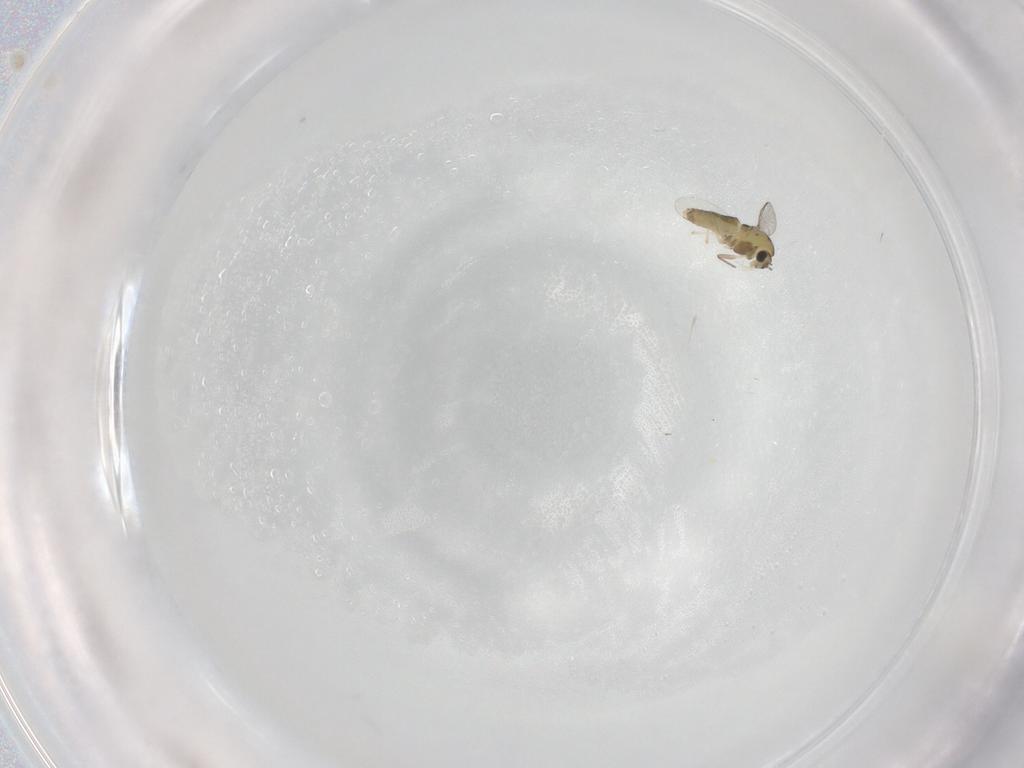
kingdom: Animalia
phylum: Arthropoda
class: Insecta
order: Diptera
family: Chironomidae
